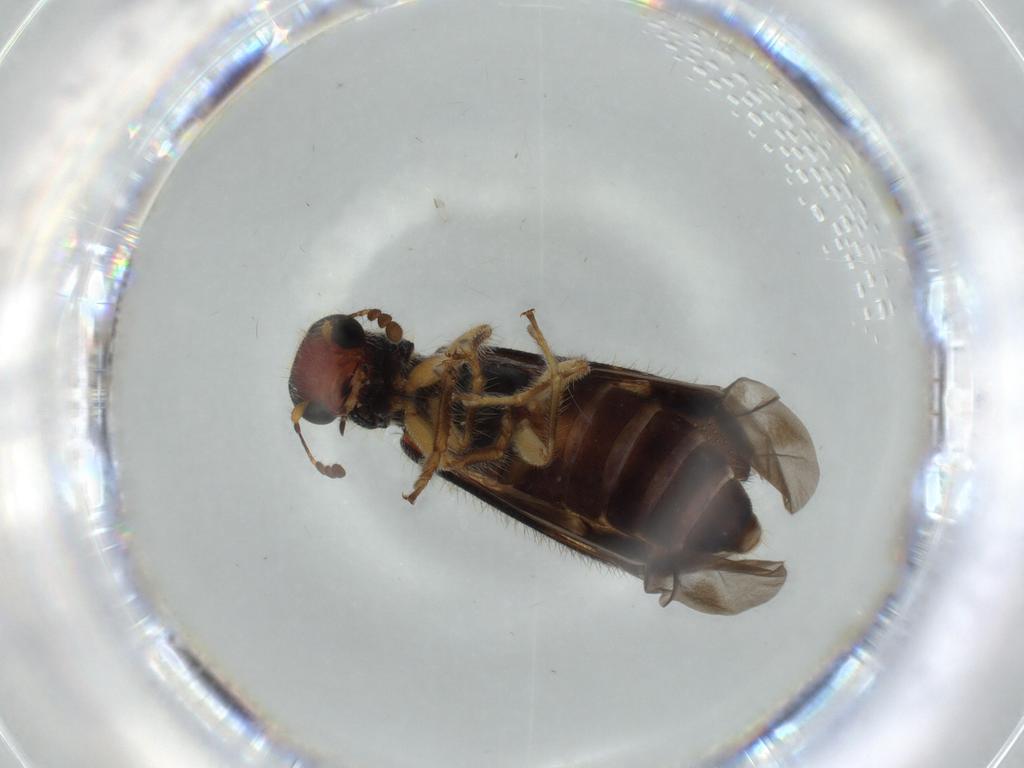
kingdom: Animalia
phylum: Arthropoda
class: Insecta
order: Coleoptera
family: Cleridae
